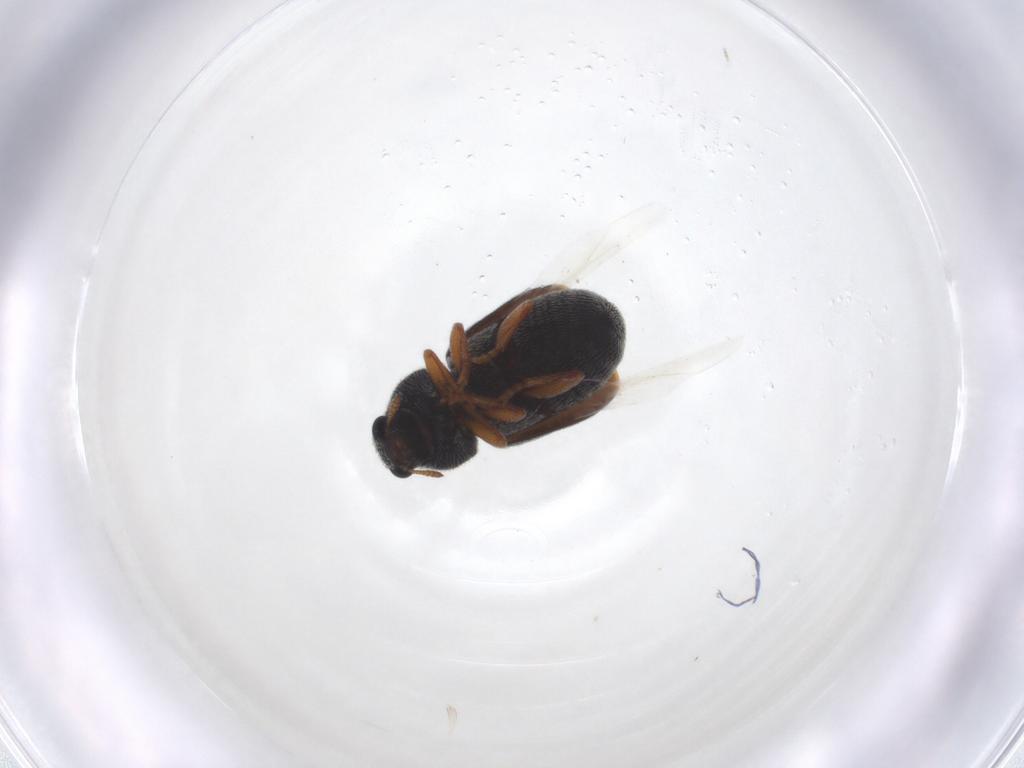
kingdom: Animalia
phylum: Arthropoda
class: Insecta
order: Coleoptera
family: Anthribidae
